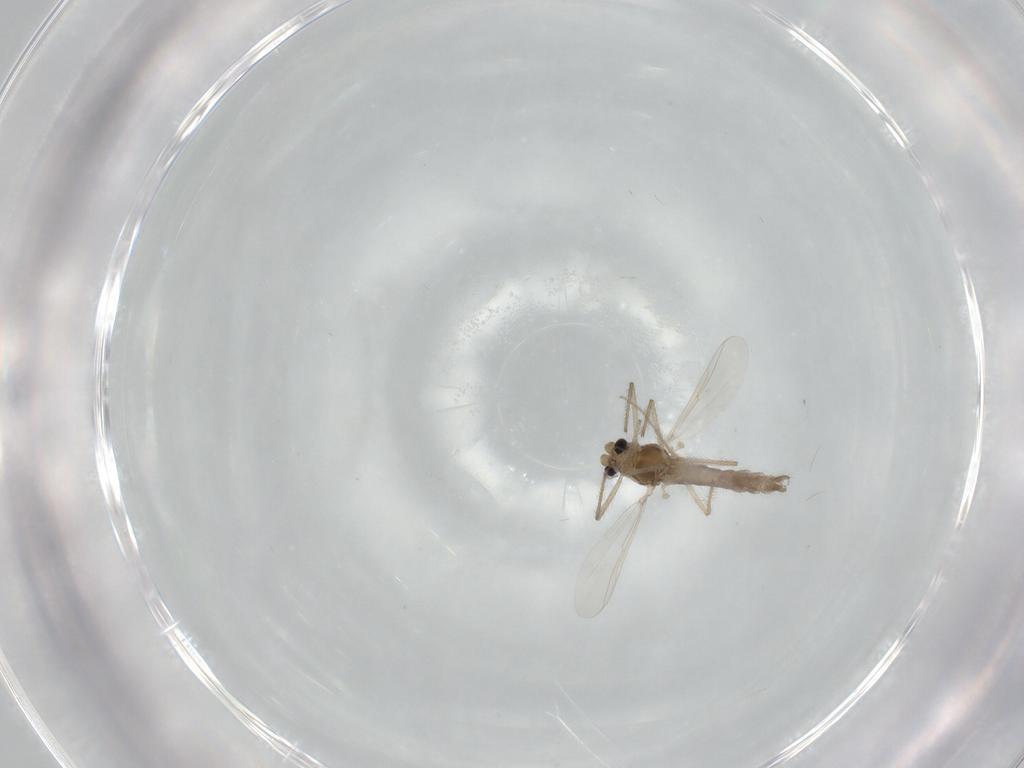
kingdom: Animalia
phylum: Arthropoda
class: Insecta
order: Diptera
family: Chironomidae
